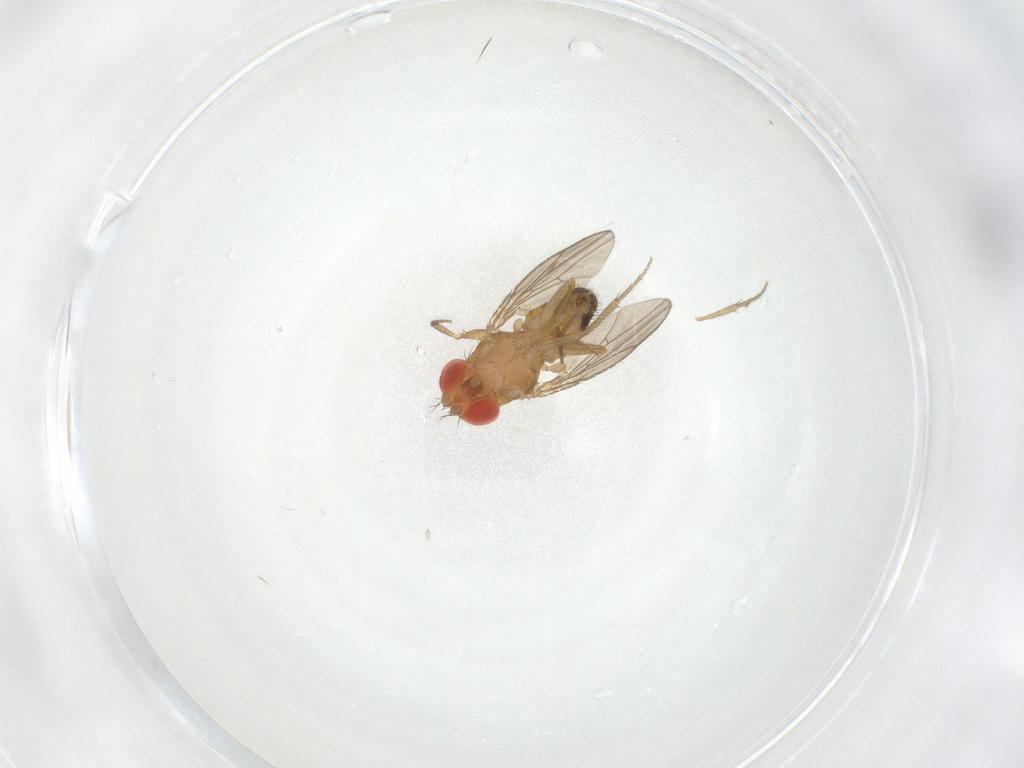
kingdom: Animalia
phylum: Arthropoda
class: Insecta
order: Diptera
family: Drosophilidae
